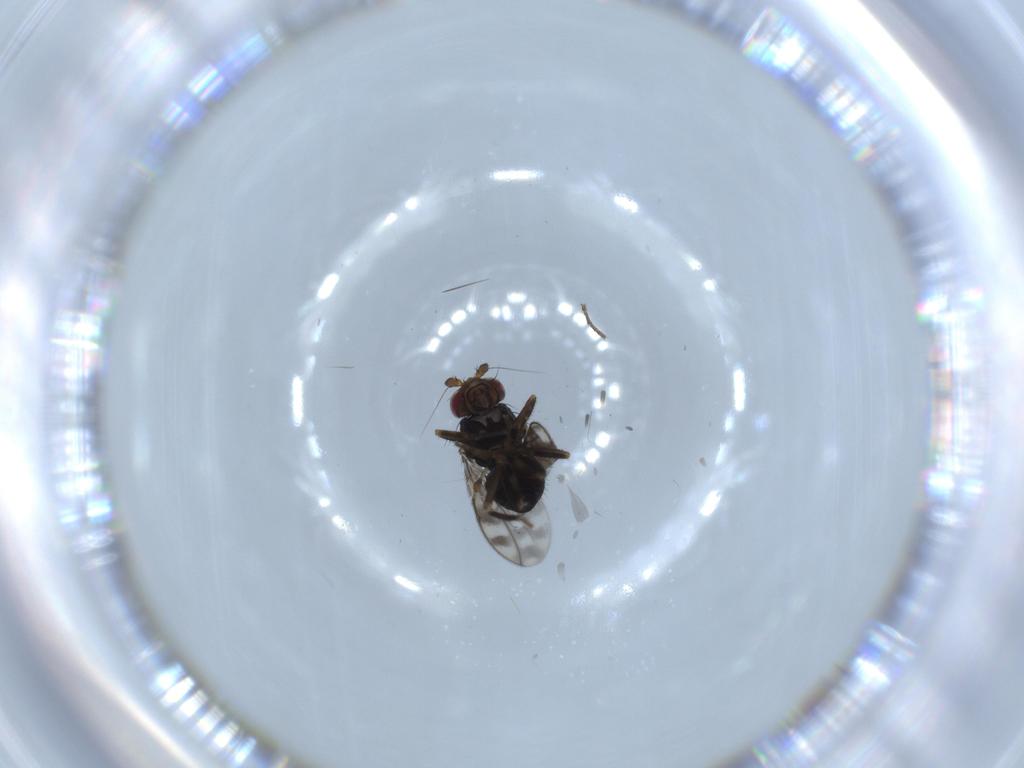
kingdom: Animalia
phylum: Arthropoda
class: Insecta
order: Diptera
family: Sphaeroceridae
